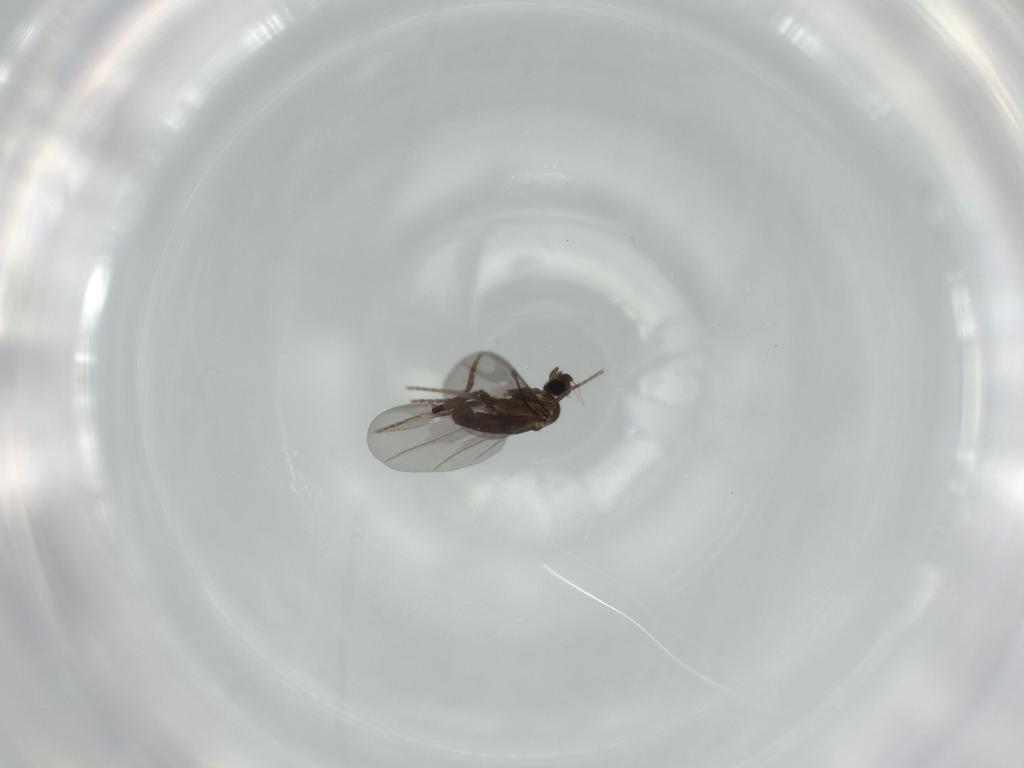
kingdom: Animalia
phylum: Arthropoda
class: Insecta
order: Diptera
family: Phoridae
